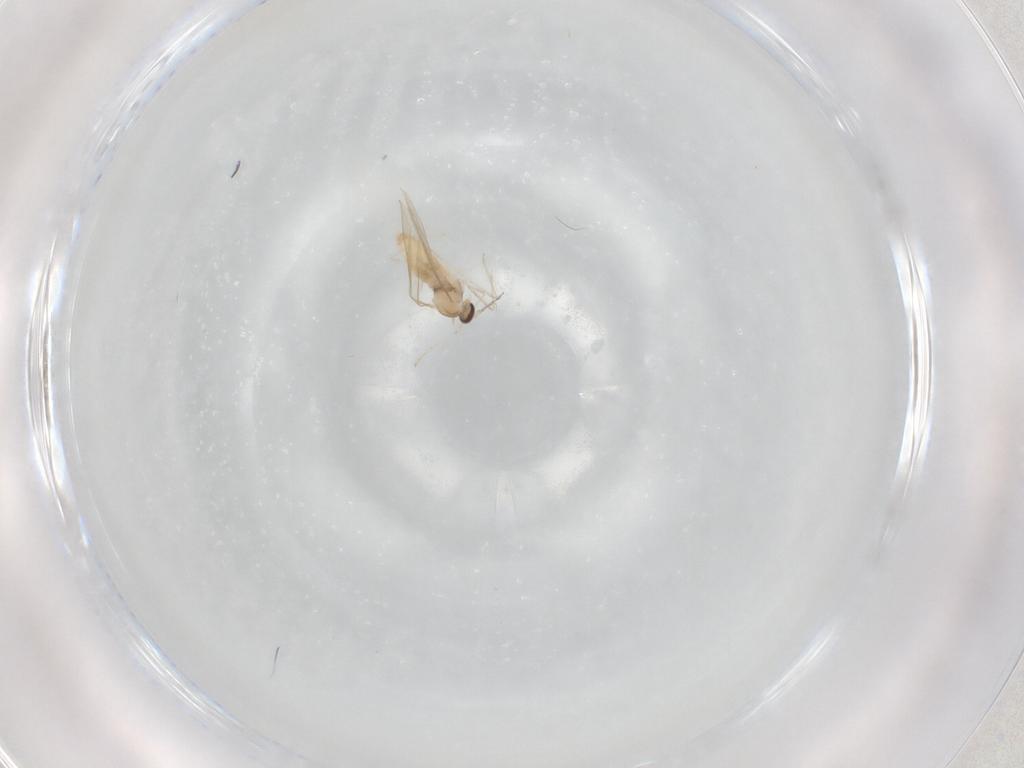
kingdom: Animalia
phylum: Arthropoda
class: Insecta
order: Diptera
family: Cecidomyiidae
